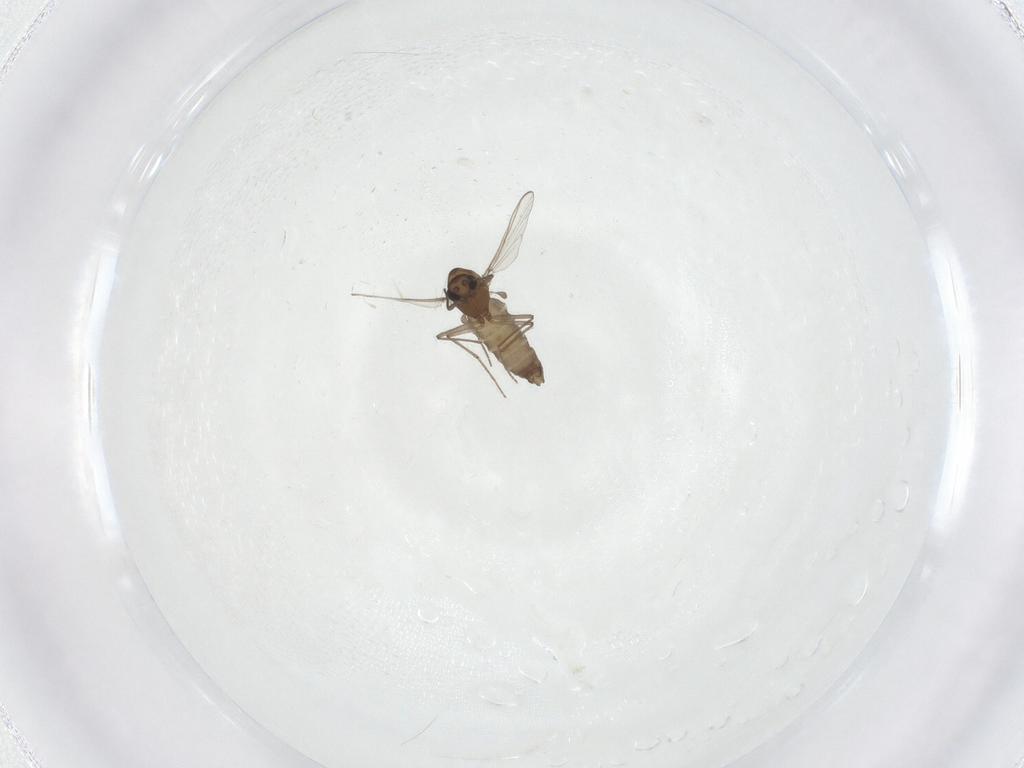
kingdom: Animalia
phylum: Arthropoda
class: Insecta
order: Diptera
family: Chironomidae
